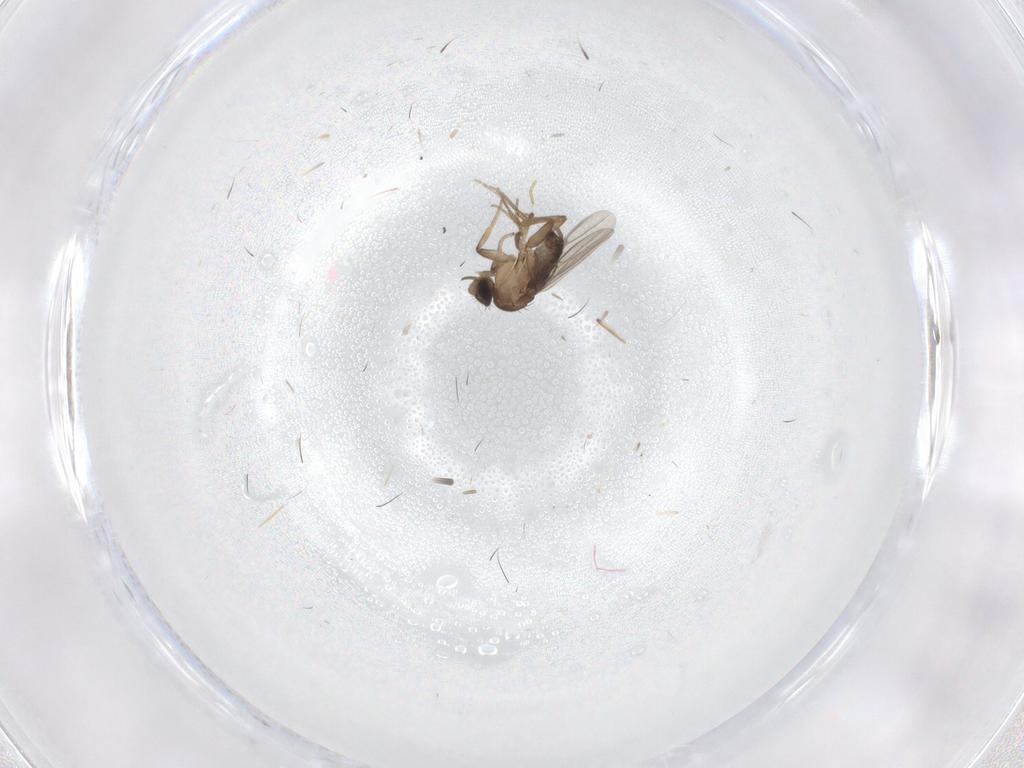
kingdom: Animalia
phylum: Arthropoda
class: Insecta
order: Diptera
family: Phoridae
